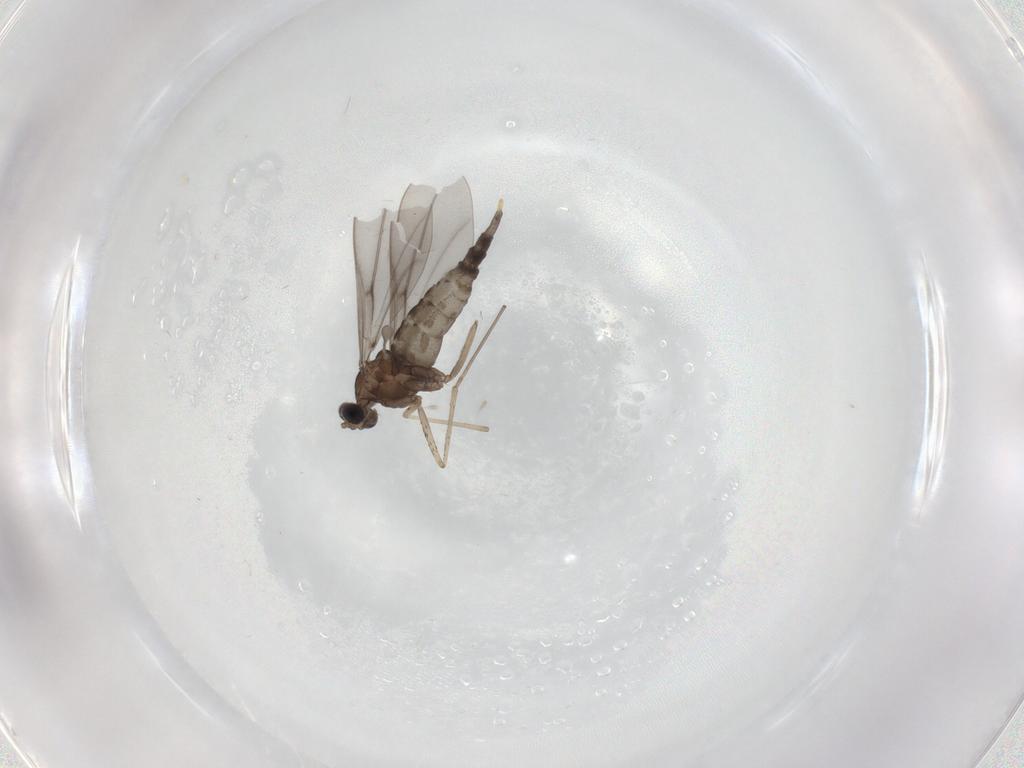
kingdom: Animalia
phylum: Arthropoda
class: Insecta
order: Diptera
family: Cecidomyiidae
